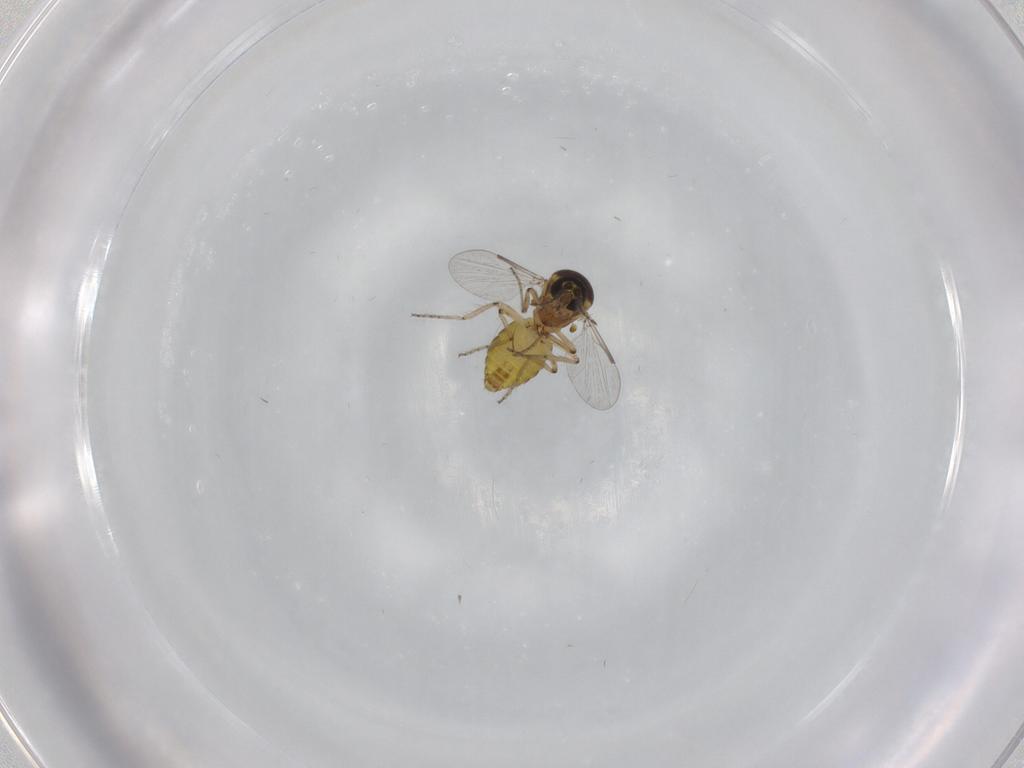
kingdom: Animalia
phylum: Arthropoda
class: Insecta
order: Diptera
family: Ceratopogonidae
